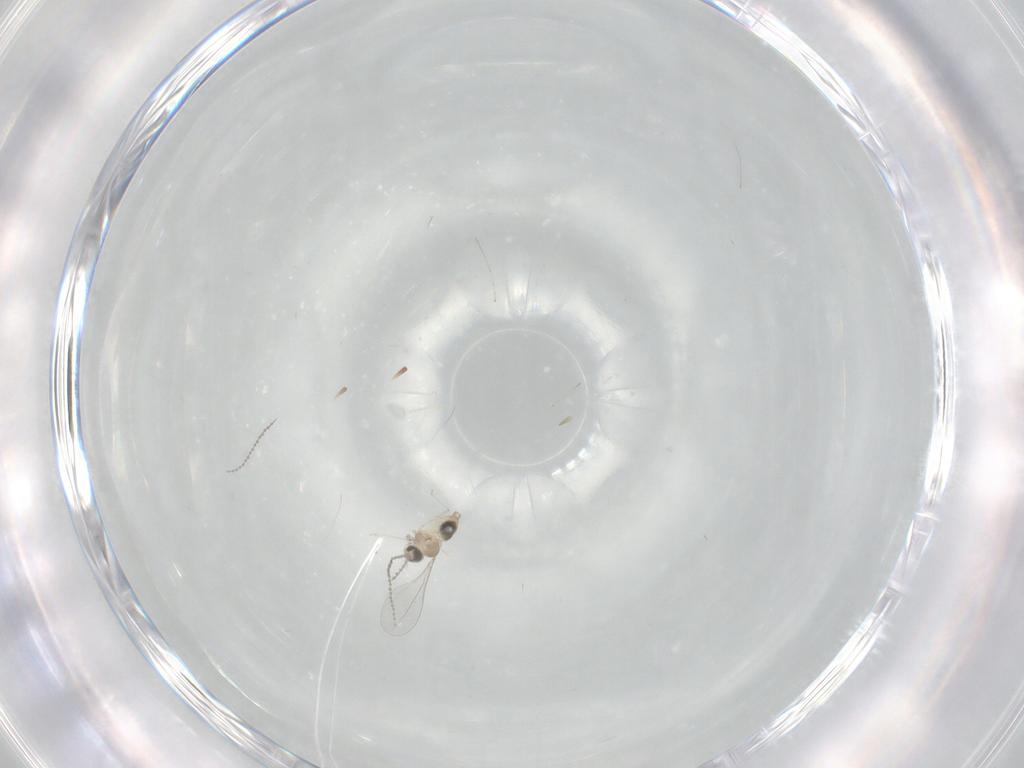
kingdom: Animalia
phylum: Arthropoda
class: Insecta
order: Diptera
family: Cecidomyiidae
